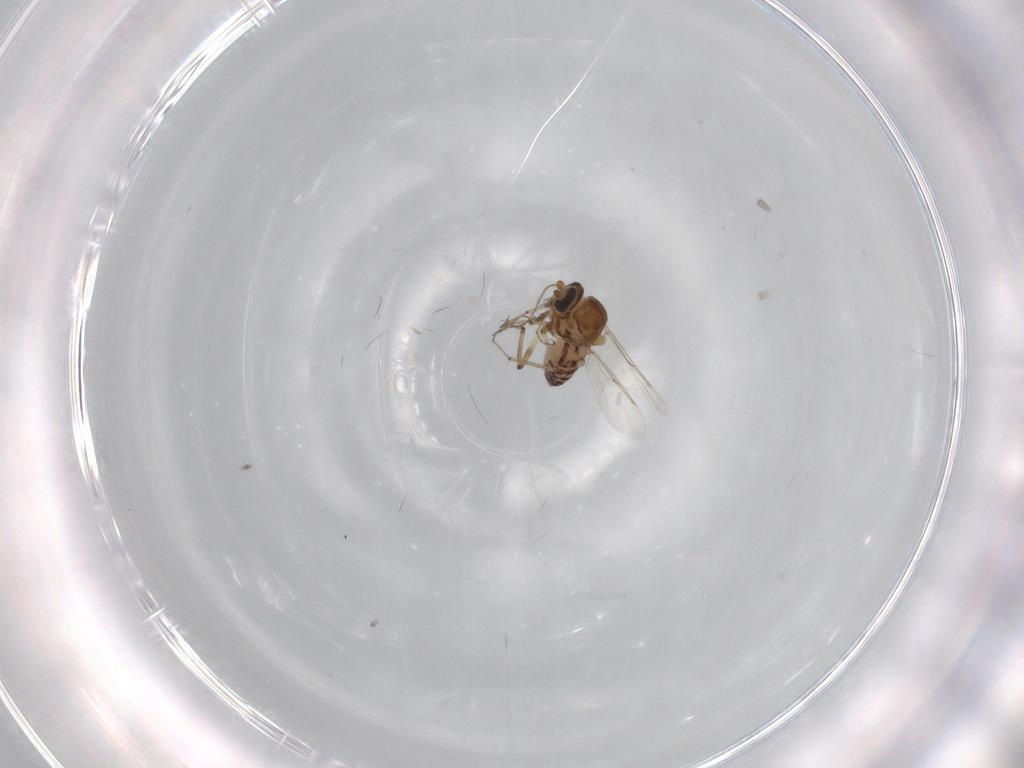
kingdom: Animalia
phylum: Arthropoda
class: Insecta
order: Diptera
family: Ceratopogonidae
